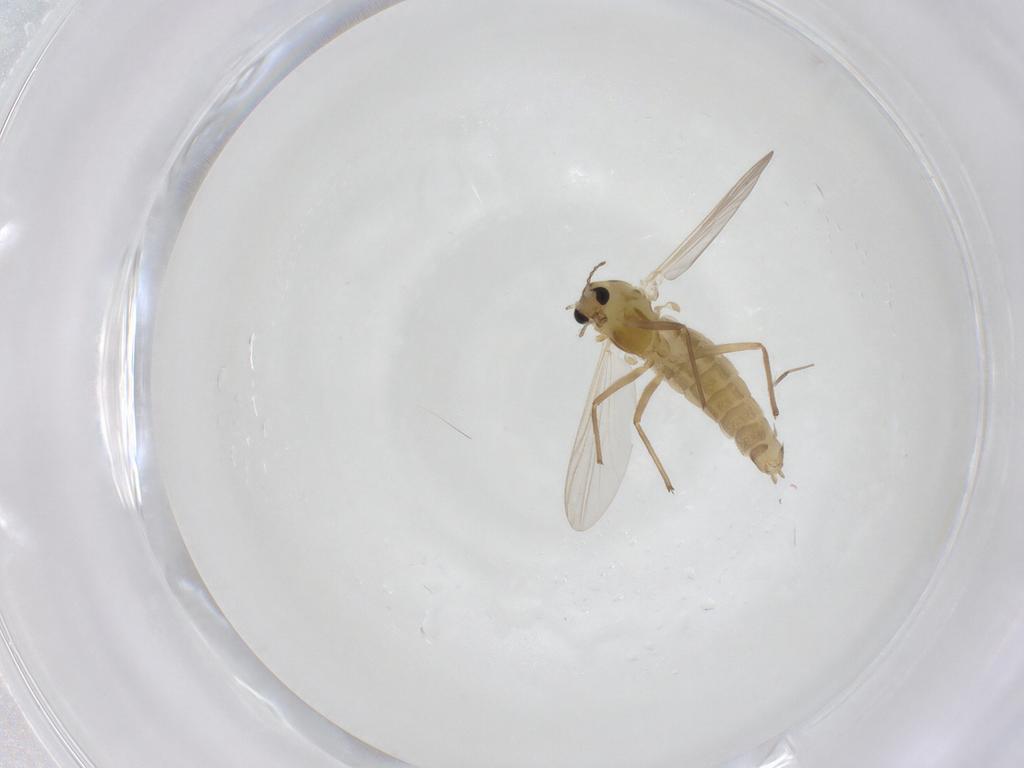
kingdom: Animalia
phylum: Arthropoda
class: Insecta
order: Diptera
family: Chironomidae
